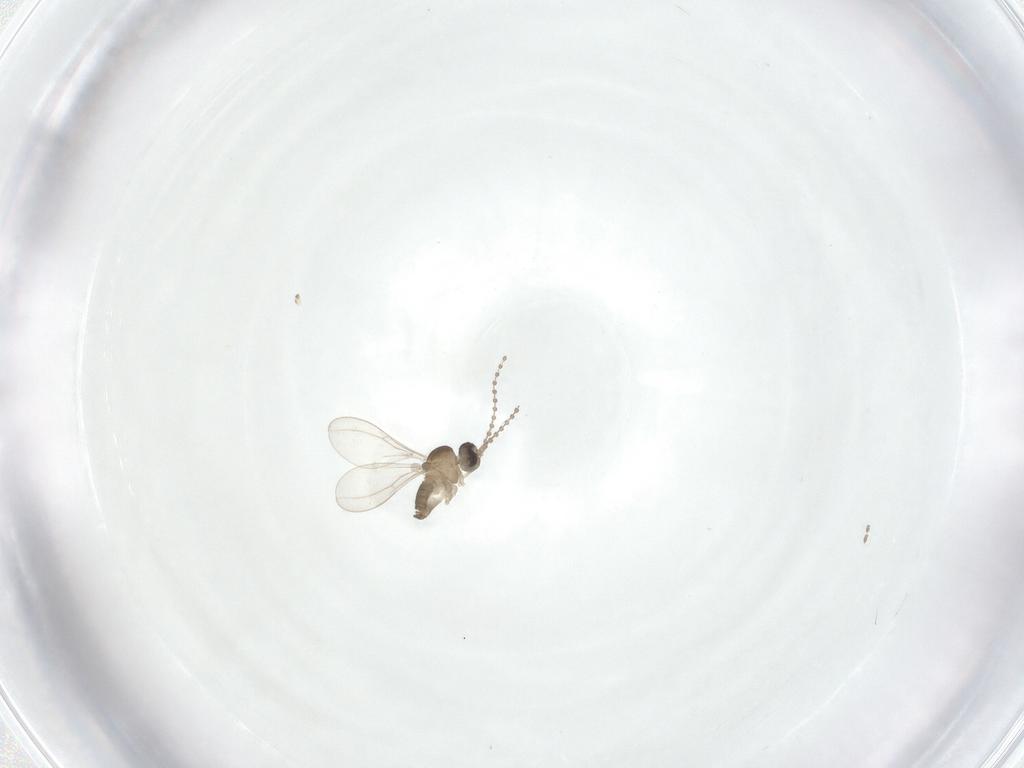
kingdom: Animalia
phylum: Arthropoda
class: Insecta
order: Diptera
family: Cecidomyiidae
